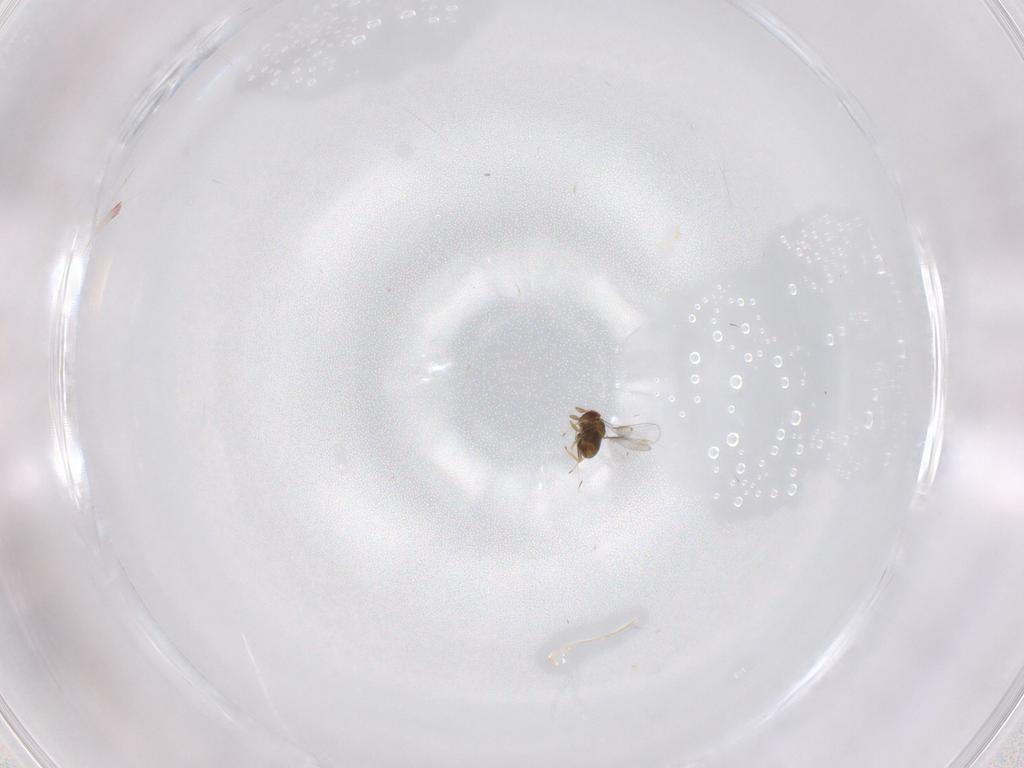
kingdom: Animalia
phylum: Arthropoda
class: Insecta
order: Hymenoptera
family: Trichogrammatidae
